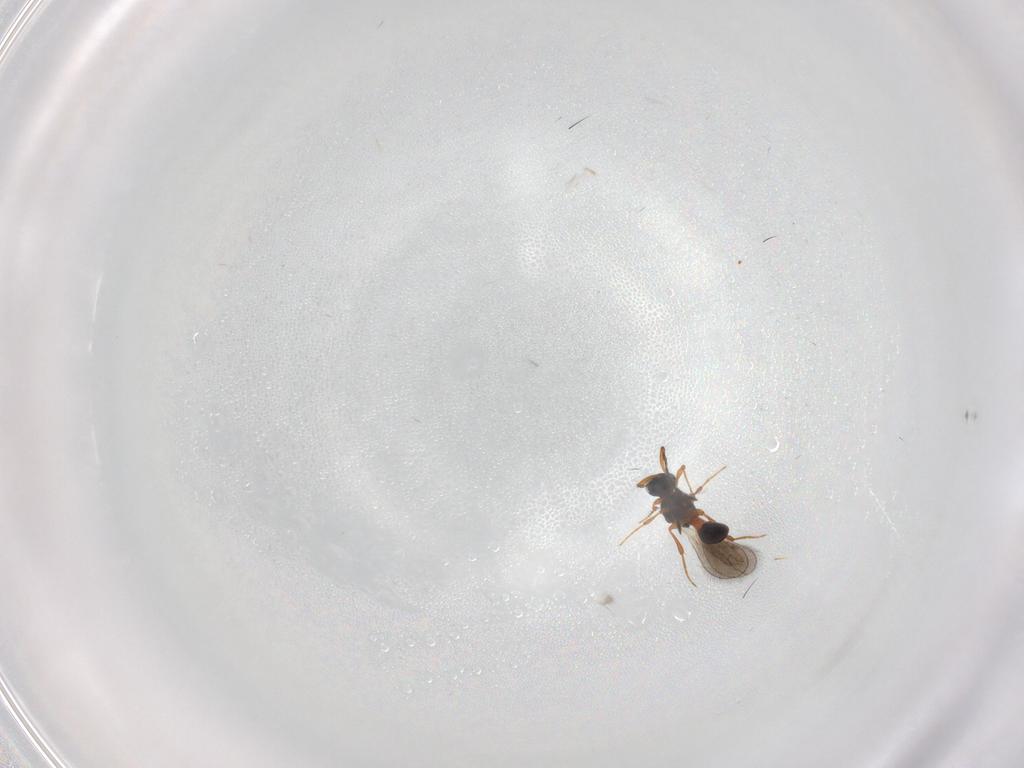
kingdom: Animalia
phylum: Arthropoda
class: Insecta
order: Hymenoptera
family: Platygastridae
